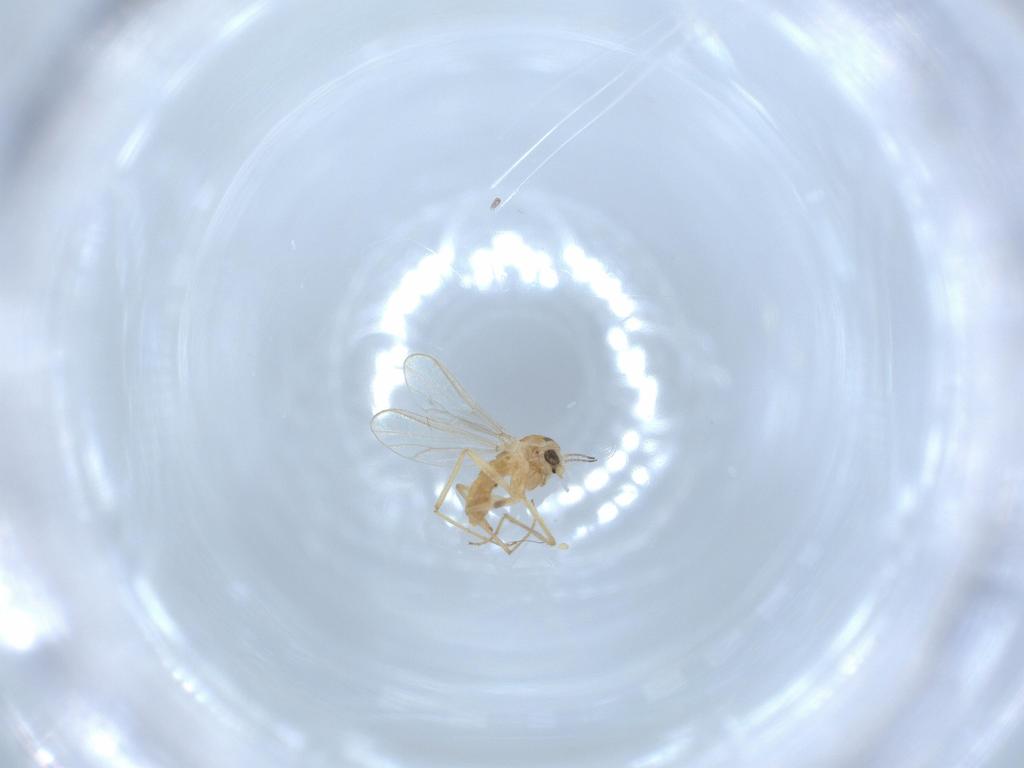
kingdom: Animalia
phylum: Arthropoda
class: Insecta
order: Diptera
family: Chironomidae
